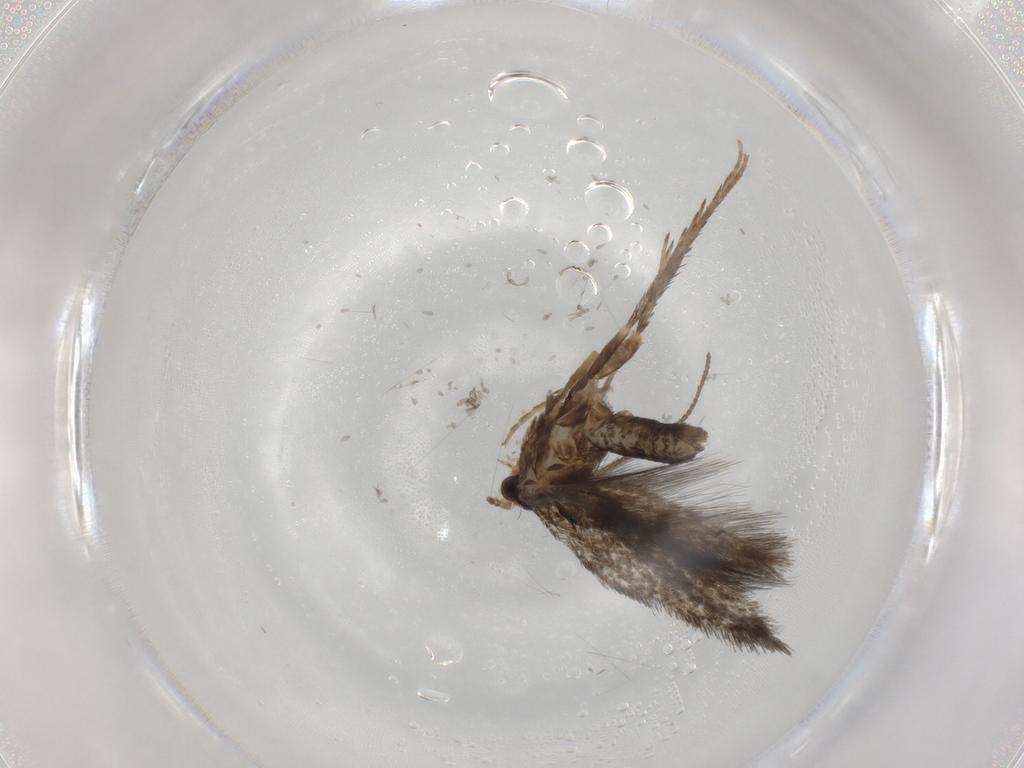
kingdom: Animalia
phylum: Arthropoda
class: Insecta
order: Lepidoptera
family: Nepticulidae
